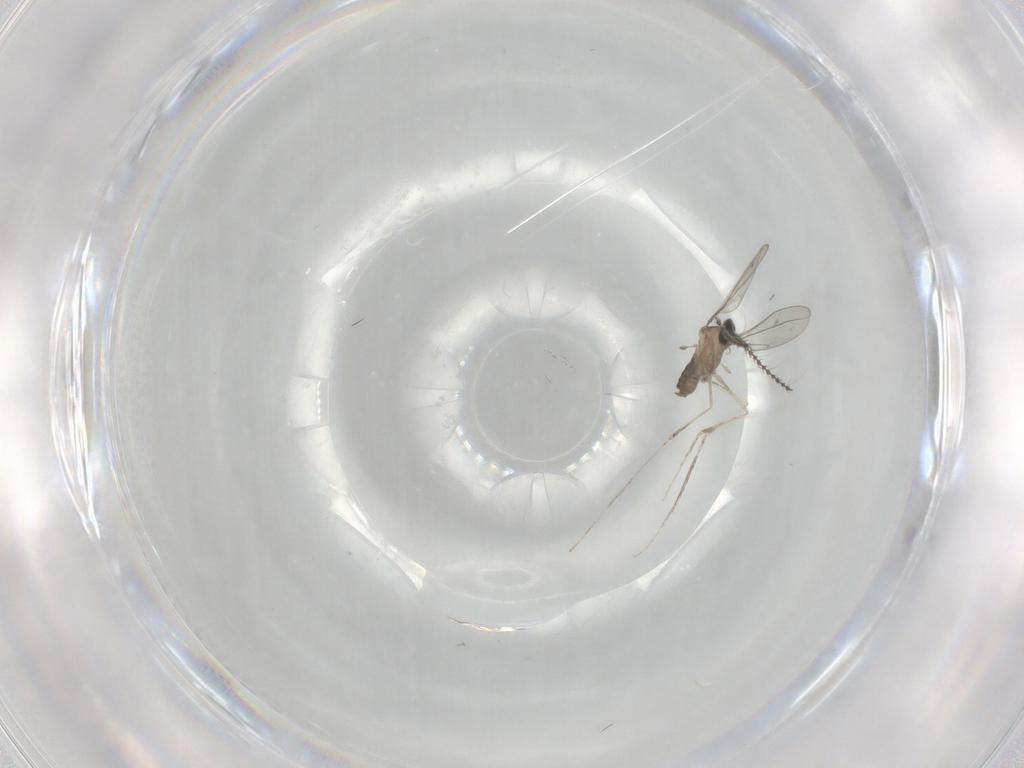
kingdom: Animalia
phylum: Arthropoda
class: Insecta
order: Diptera
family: Cecidomyiidae
